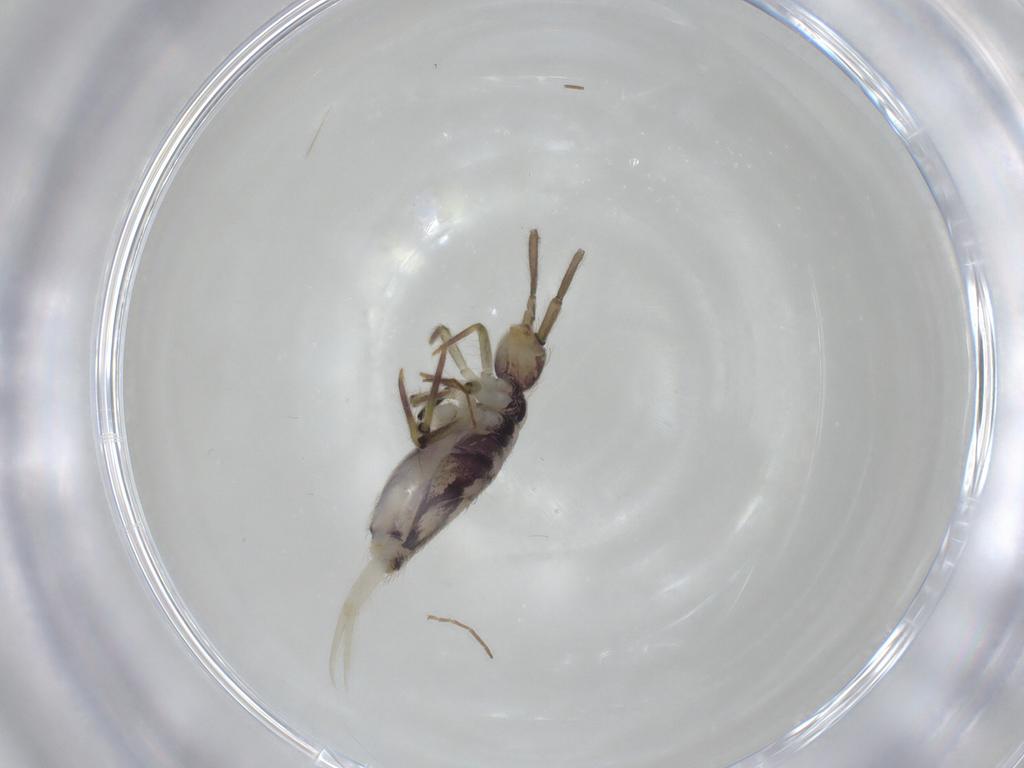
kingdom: Animalia
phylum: Arthropoda
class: Collembola
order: Entomobryomorpha
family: Entomobryidae
